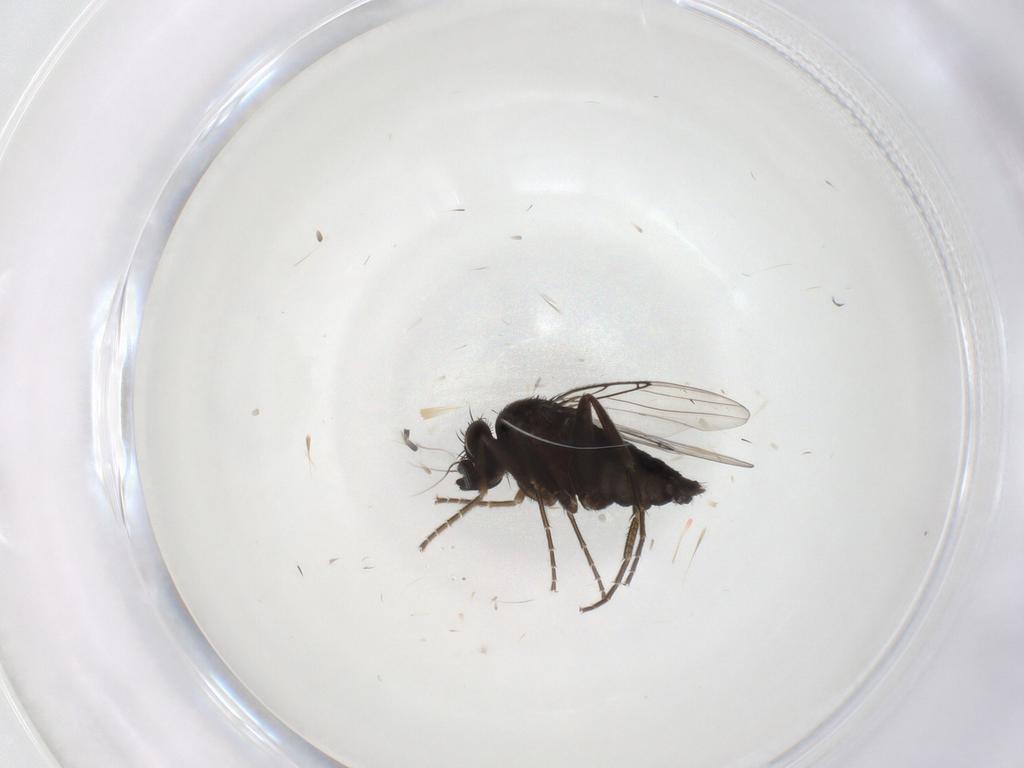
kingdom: Animalia
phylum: Arthropoda
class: Insecta
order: Diptera
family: Phoridae
